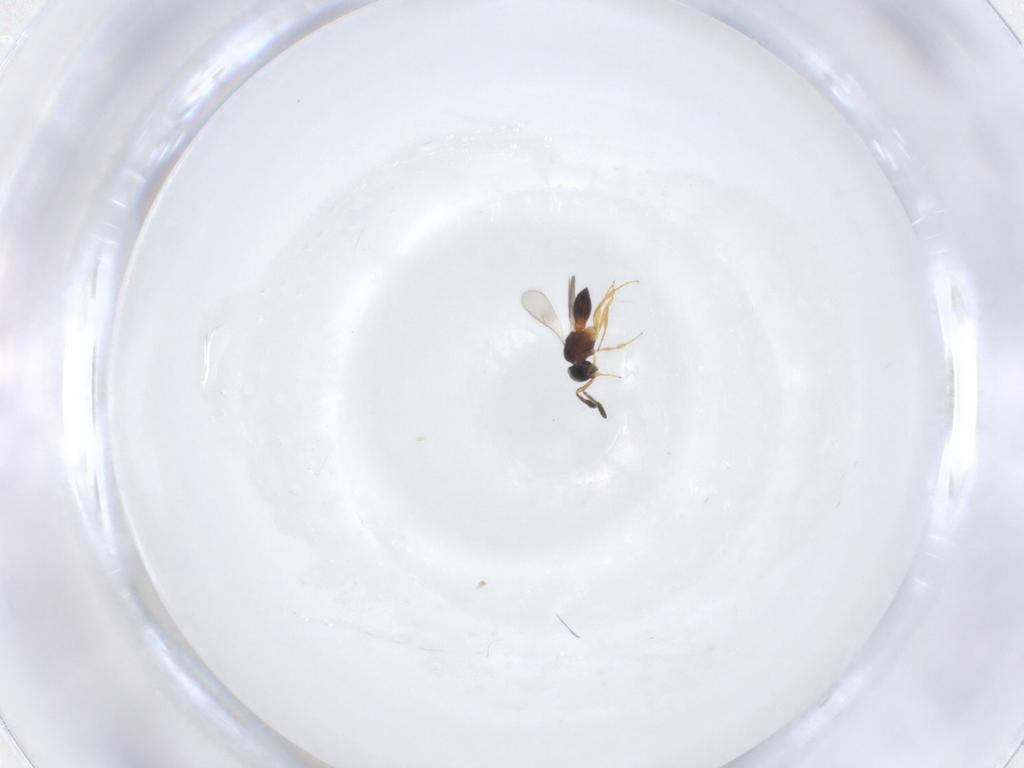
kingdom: Animalia
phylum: Arthropoda
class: Insecta
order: Hymenoptera
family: Scelionidae
